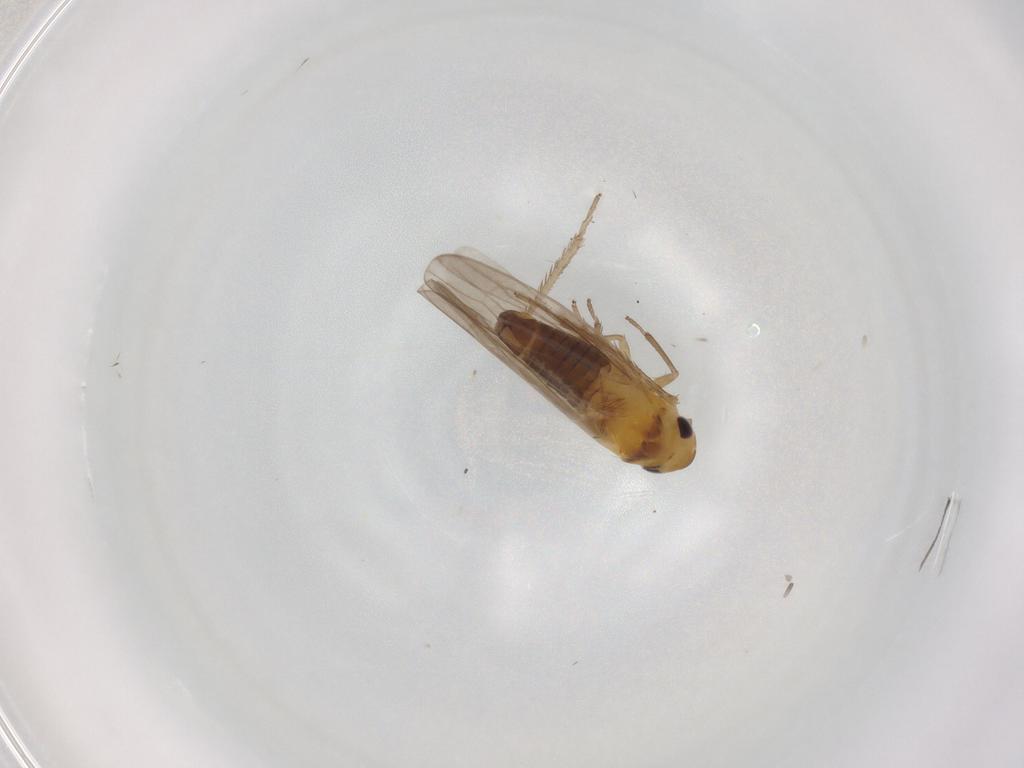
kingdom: Animalia
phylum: Arthropoda
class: Insecta
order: Hemiptera
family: Cicadellidae
